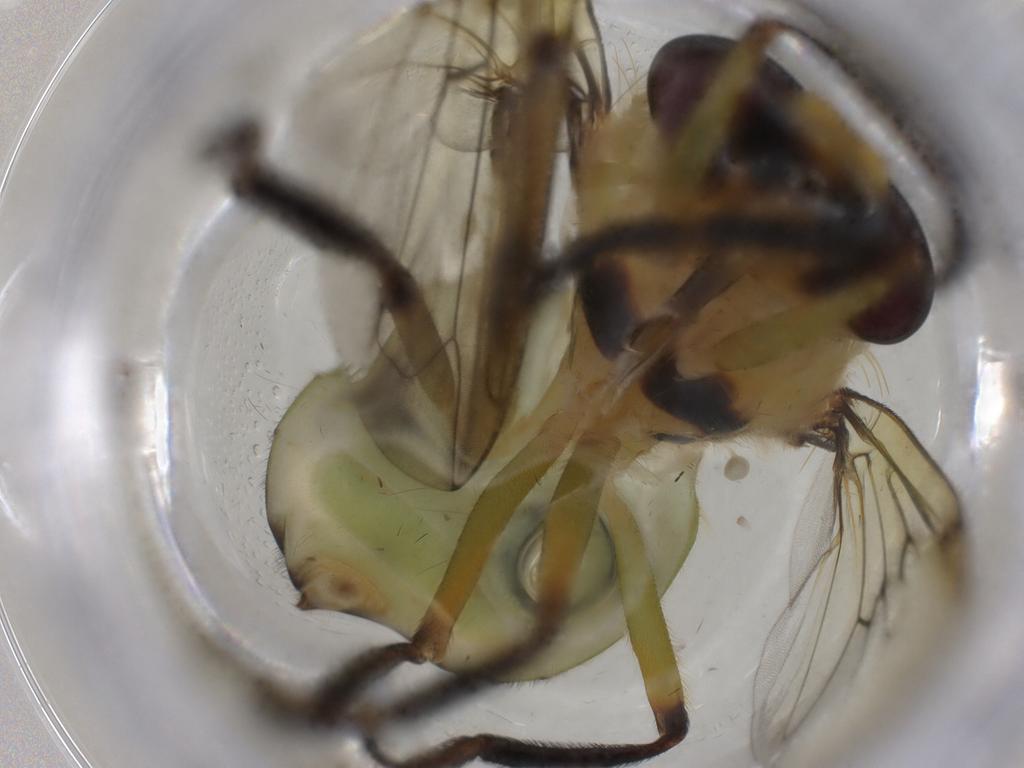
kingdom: Animalia
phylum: Arthropoda
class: Insecta
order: Diptera
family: Syrphidae
